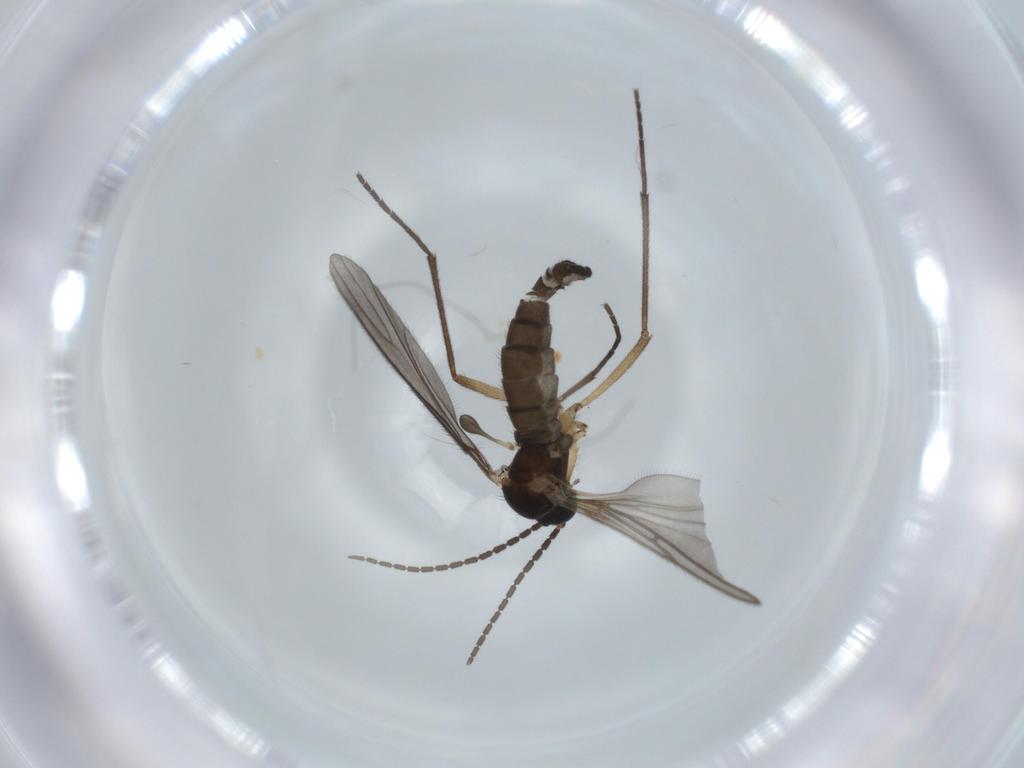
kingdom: Animalia
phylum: Arthropoda
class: Insecta
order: Diptera
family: Sciaridae
